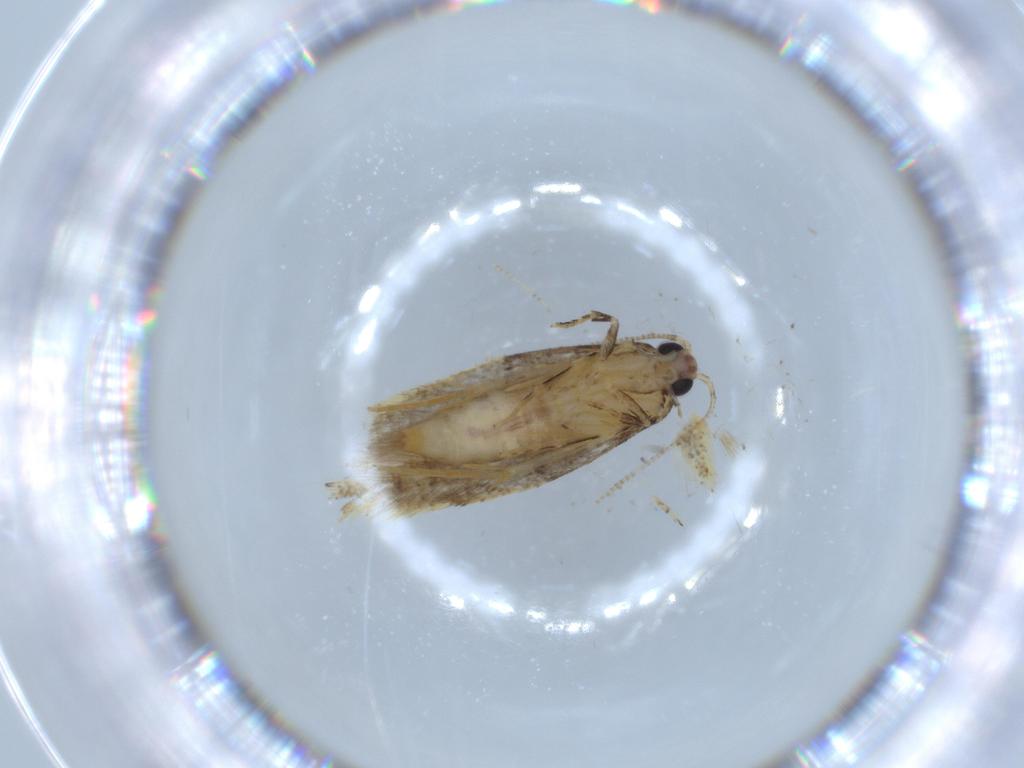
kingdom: Animalia
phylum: Arthropoda
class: Insecta
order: Lepidoptera
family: Tineidae
